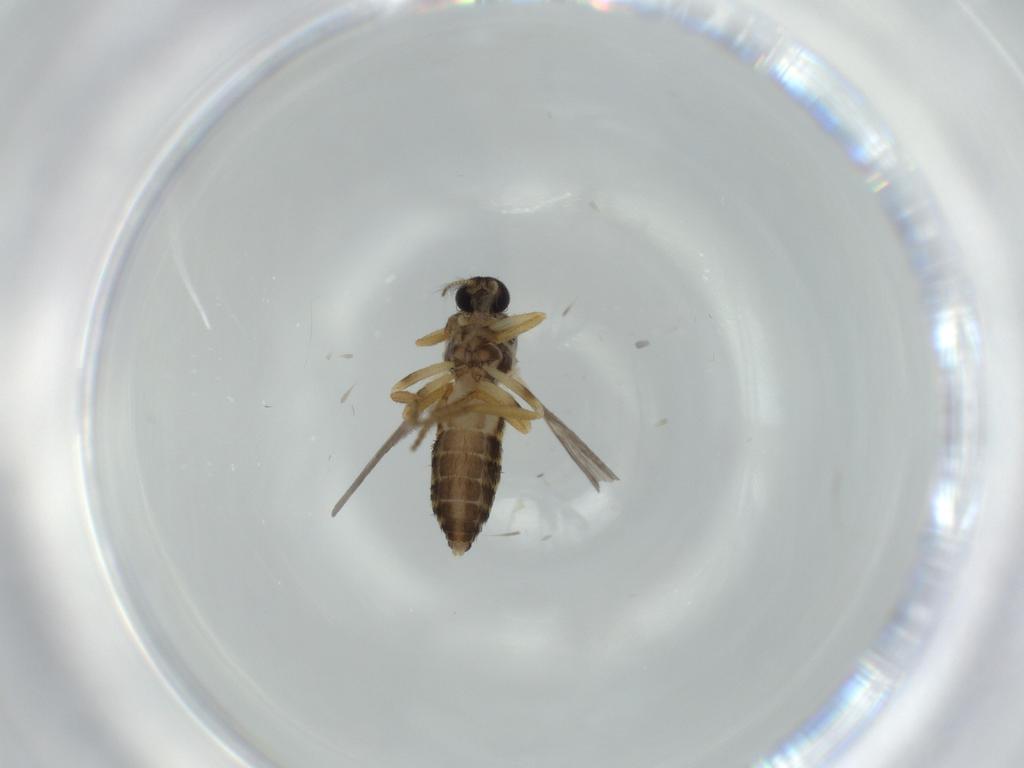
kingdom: Animalia
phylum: Arthropoda
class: Insecta
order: Diptera
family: Ceratopogonidae
